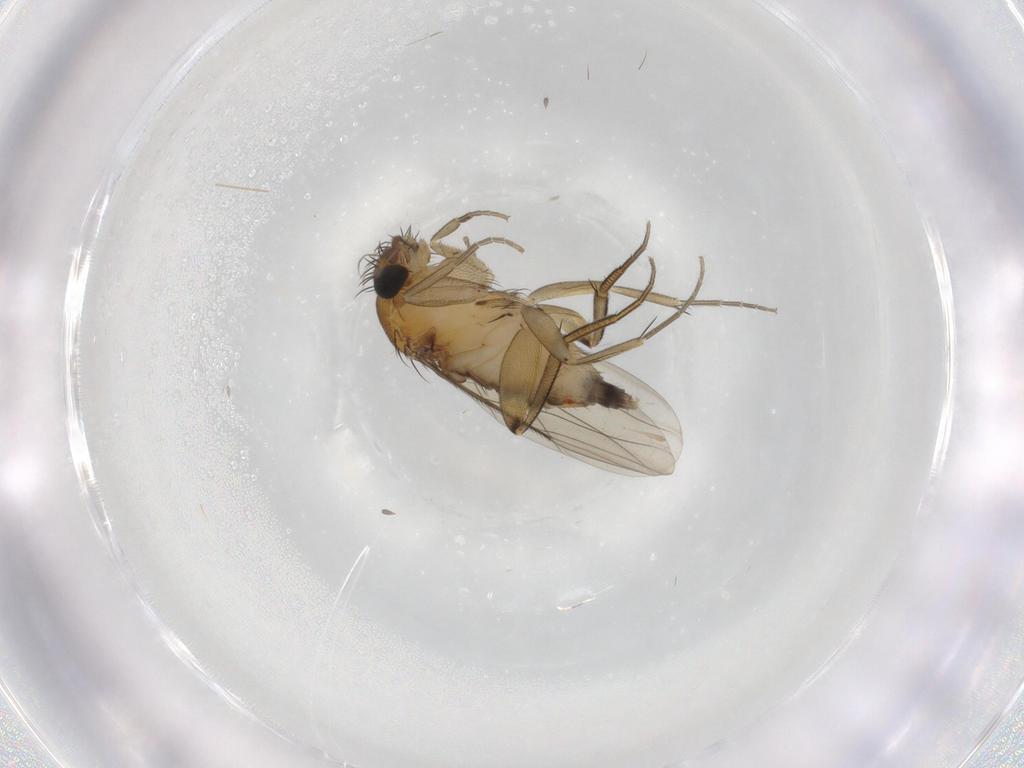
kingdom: Animalia
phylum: Arthropoda
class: Insecta
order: Diptera
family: Phoridae
